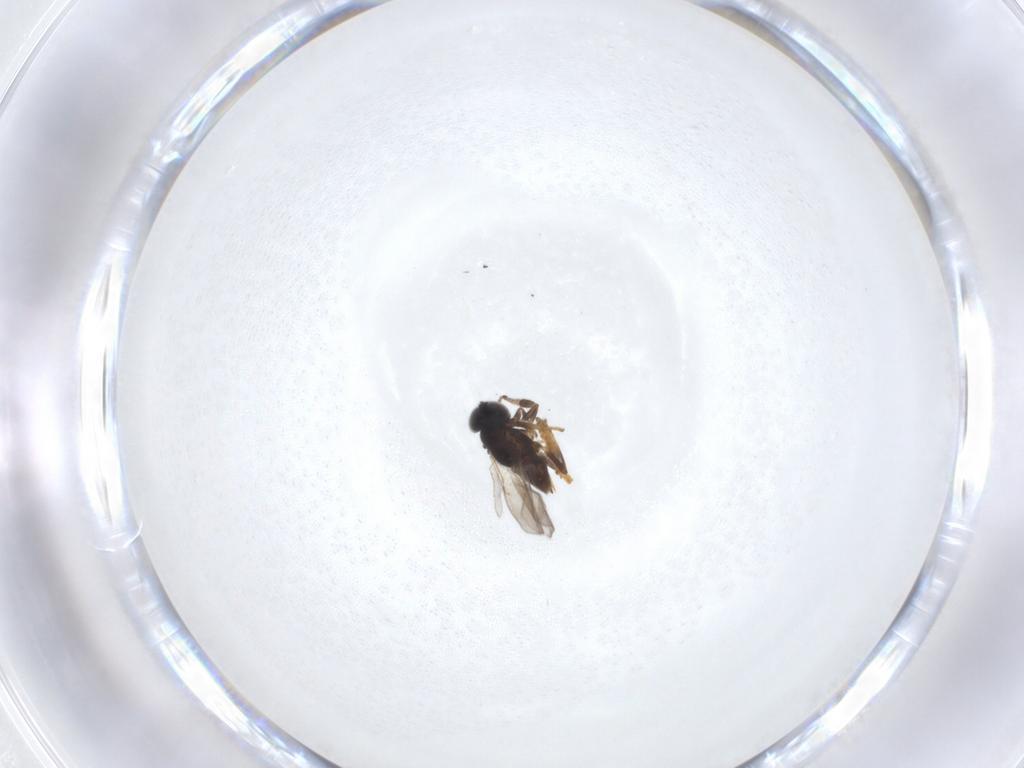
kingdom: Animalia
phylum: Arthropoda
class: Insecta
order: Hymenoptera
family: Encyrtidae
